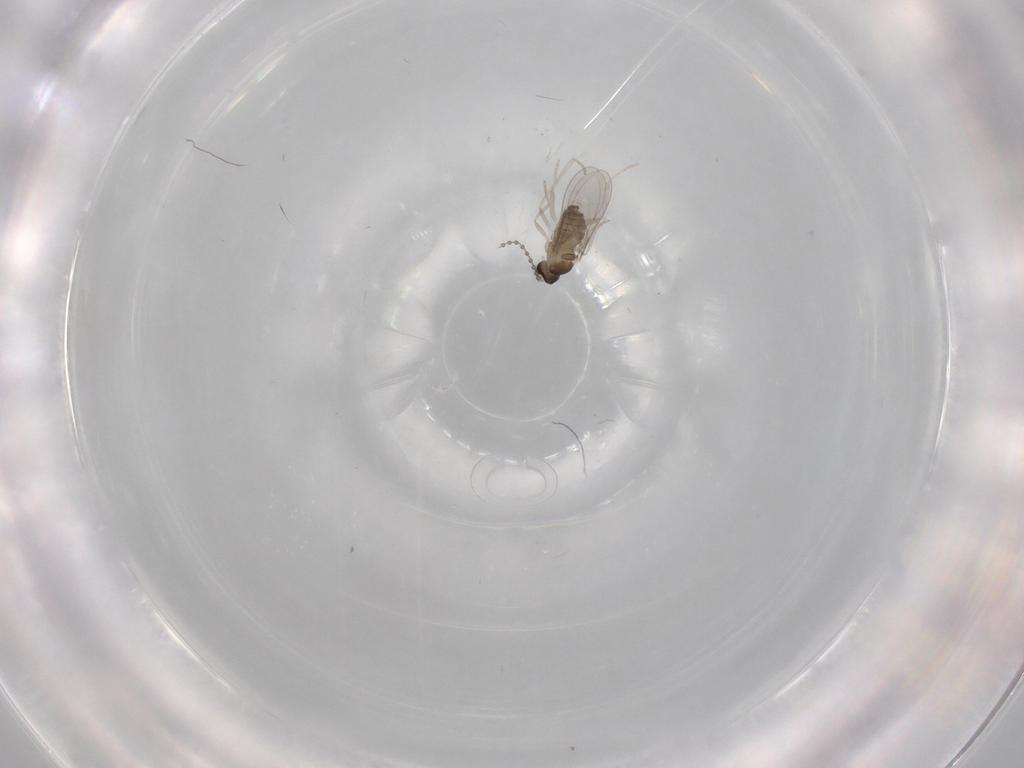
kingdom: Animalia
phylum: Arthropoda
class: Insecta
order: Diptera
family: Cecidomyiidae
